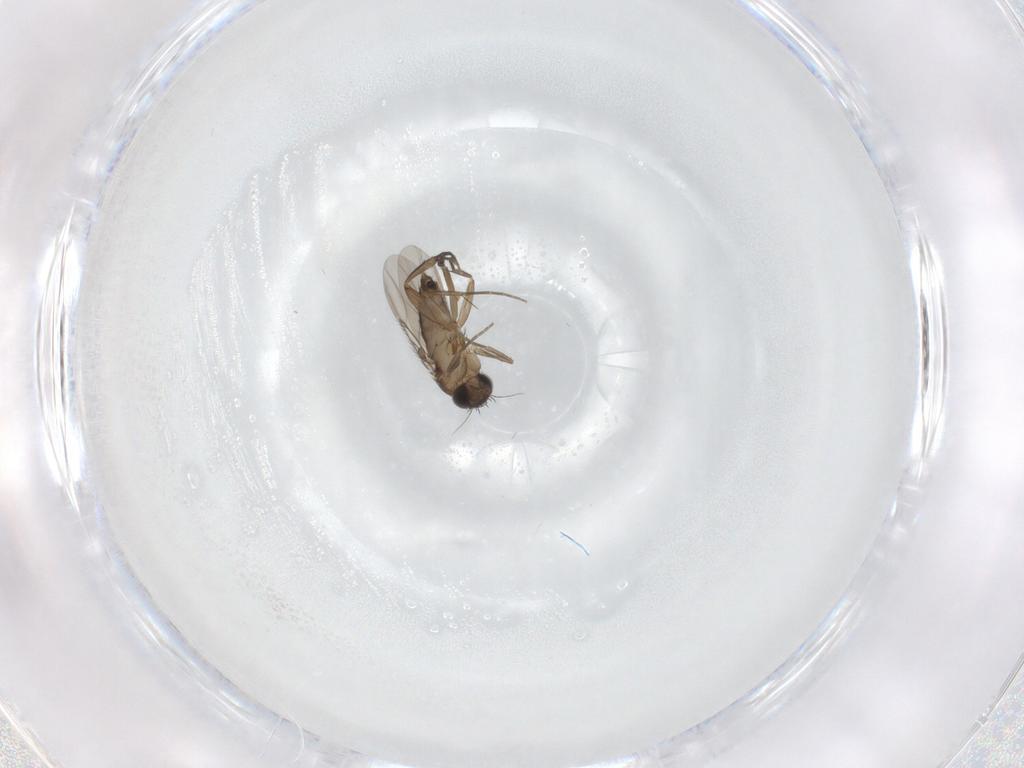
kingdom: Animalia
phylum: Arthropoda
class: Insecta
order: Diptera
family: Phoridae
